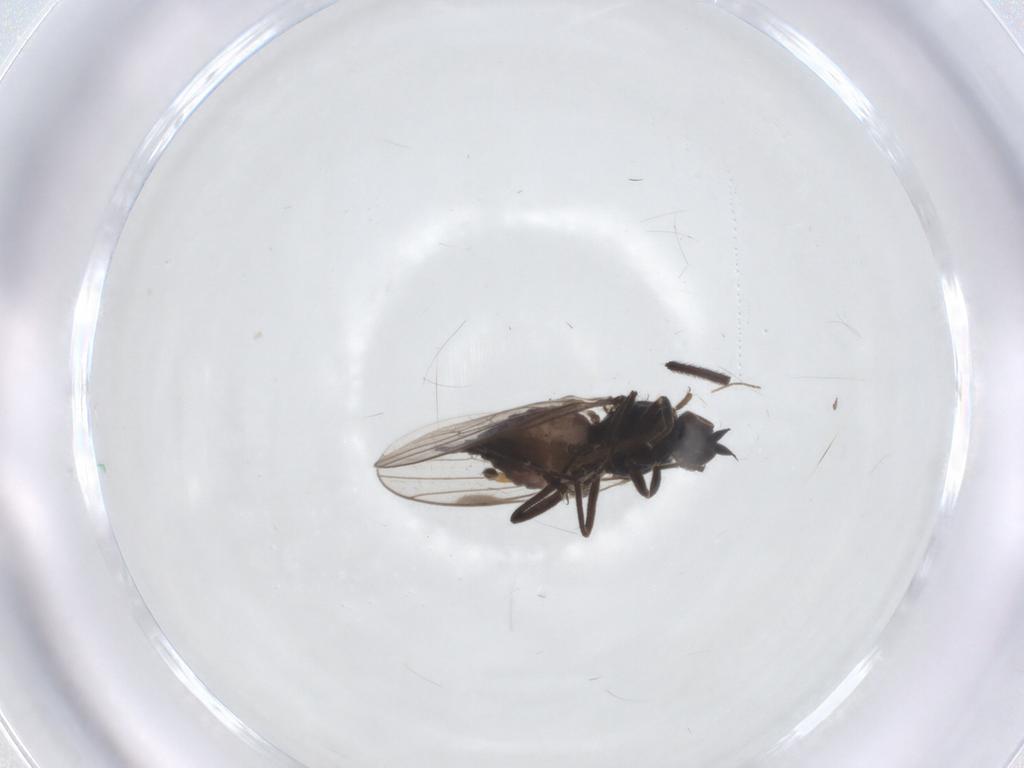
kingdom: Animalia
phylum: Arthropoda
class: Insecta
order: Diptera
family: Hybotidae
